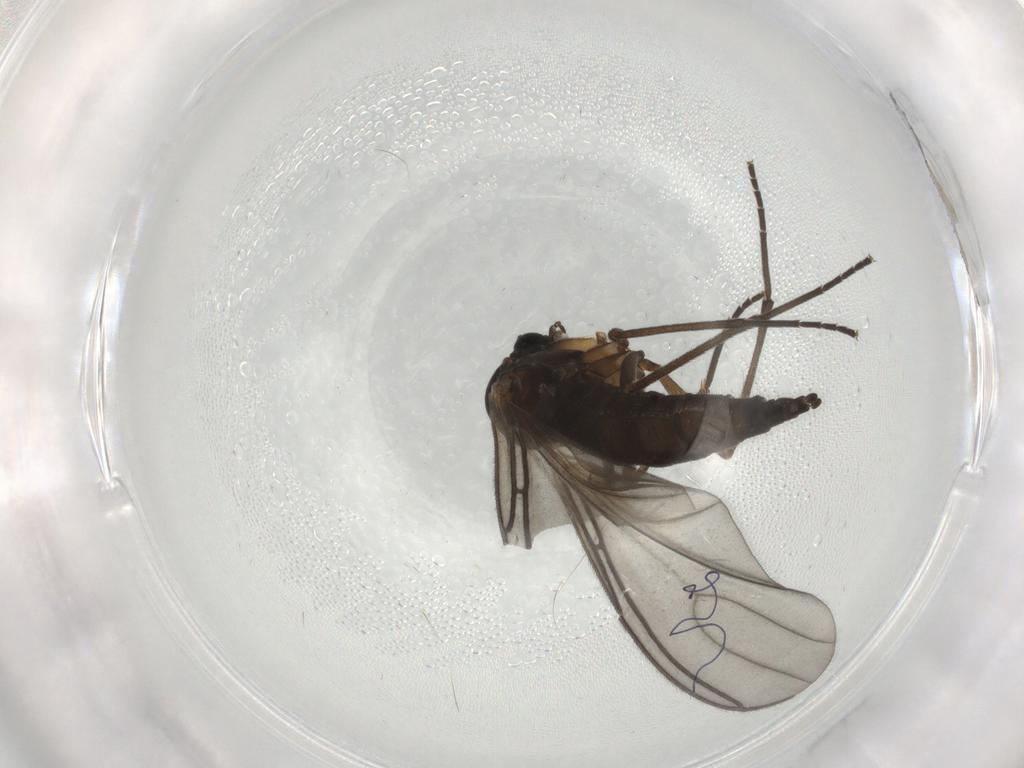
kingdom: Animalia
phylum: Arthropoda
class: Insecta
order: Diptera
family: Sciaridae
